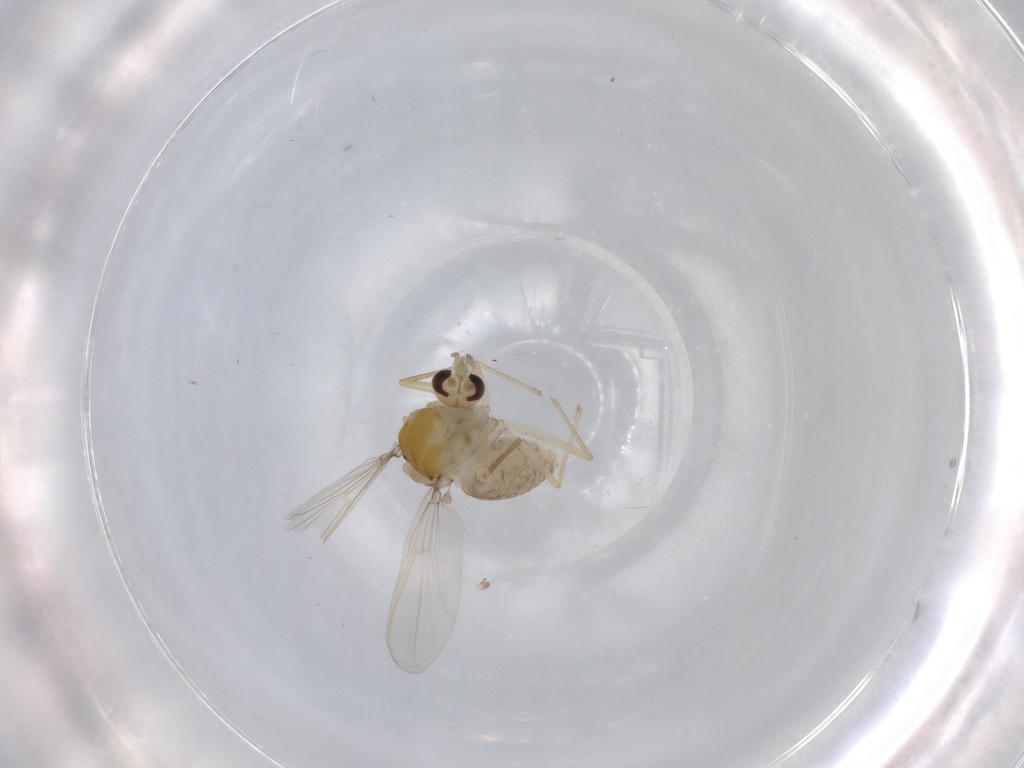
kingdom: Animalia
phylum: Arthropoda
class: Insecta
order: Diptera
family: Chironomidae
